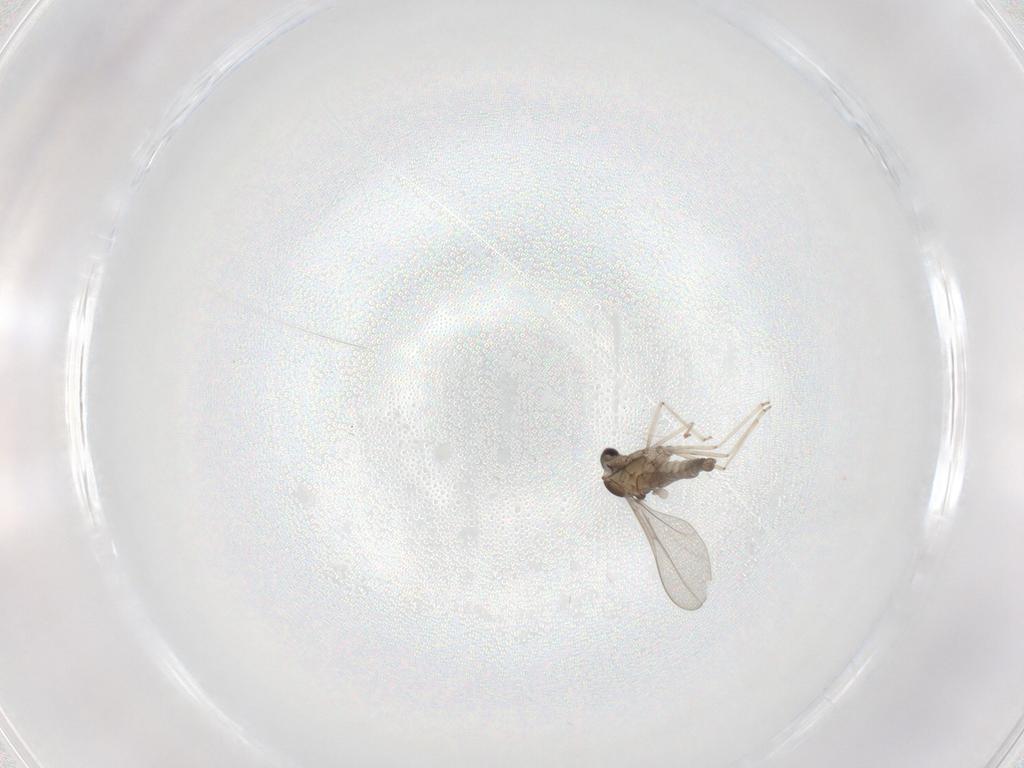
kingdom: Animalia
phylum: Arthropoda
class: Insecta
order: Diptera
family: Cecidomyiidae
